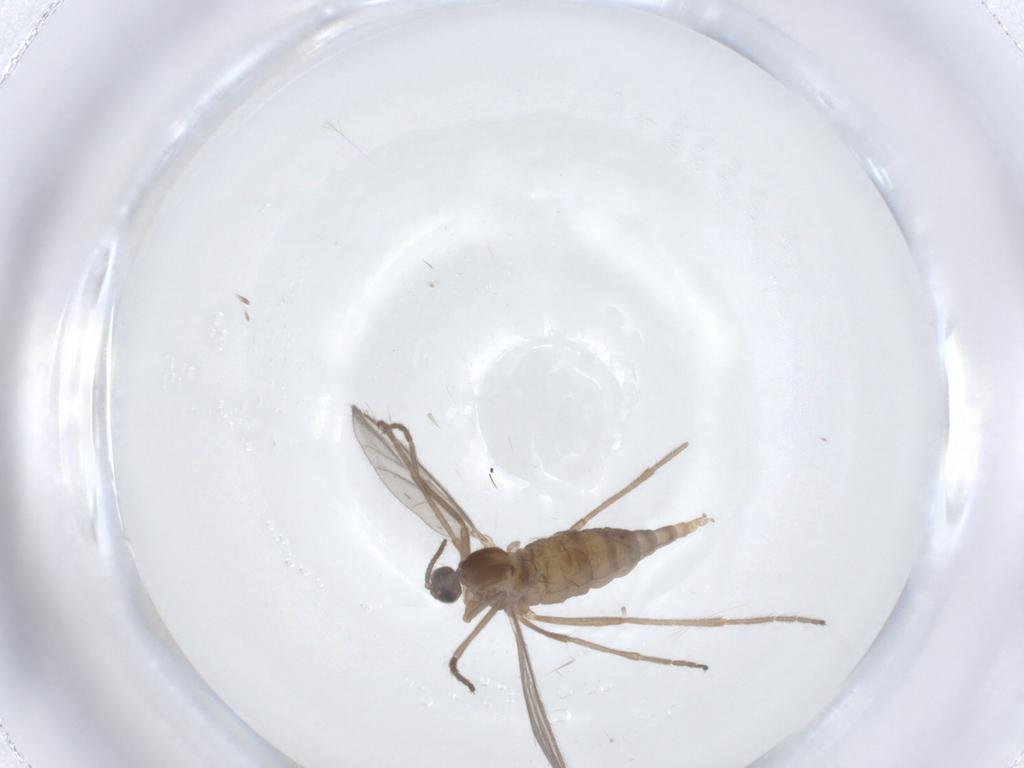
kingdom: Animalia
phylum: Arthropoda
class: Insecta
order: Diptera
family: Cecidomyiidae
